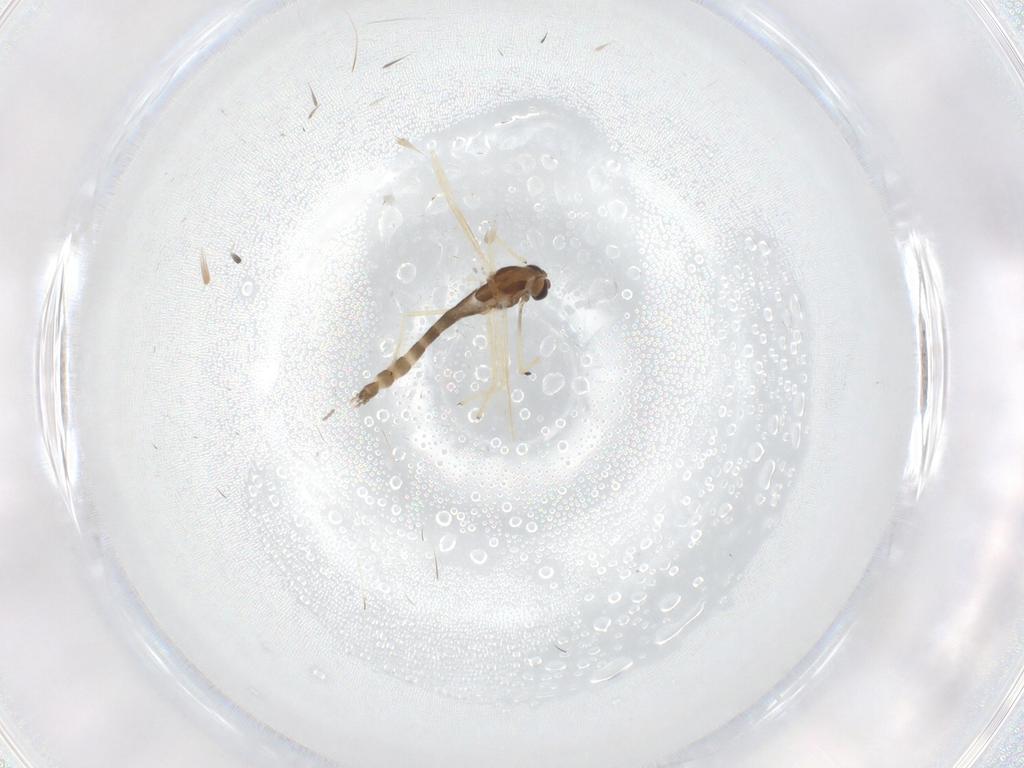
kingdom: Animalia
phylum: Arthropoda
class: Insecta
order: Diptera
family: Chironomidae
